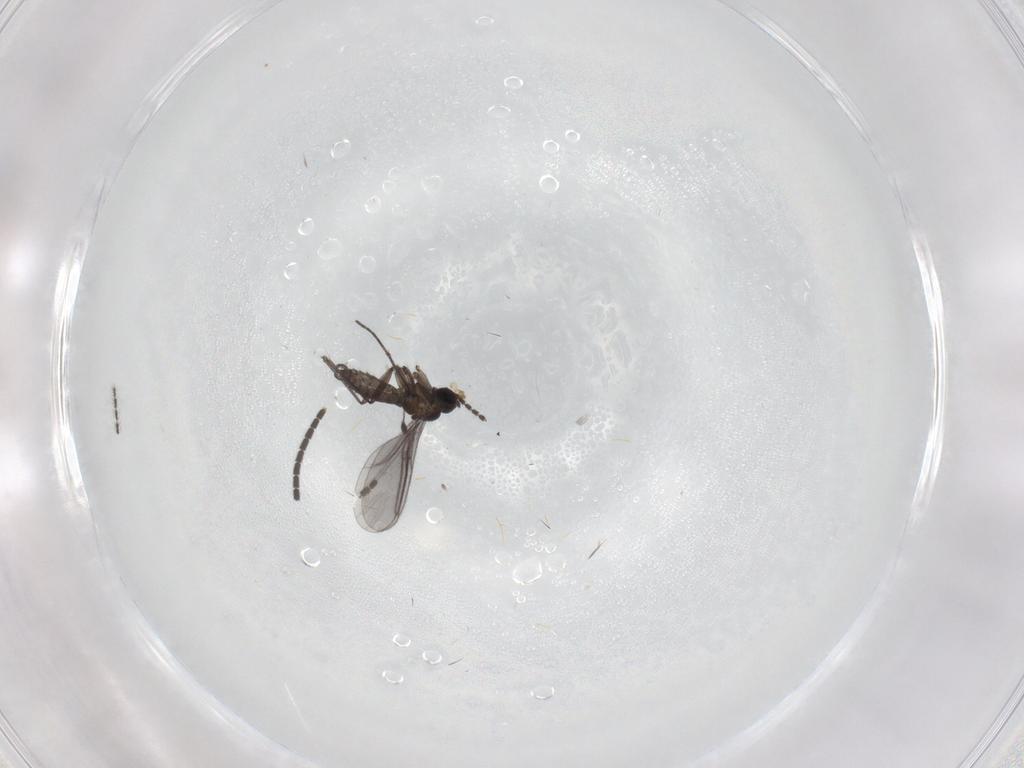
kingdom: Animalia
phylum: Arthropoda
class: Insecta
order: Diptera
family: Sciaridae
